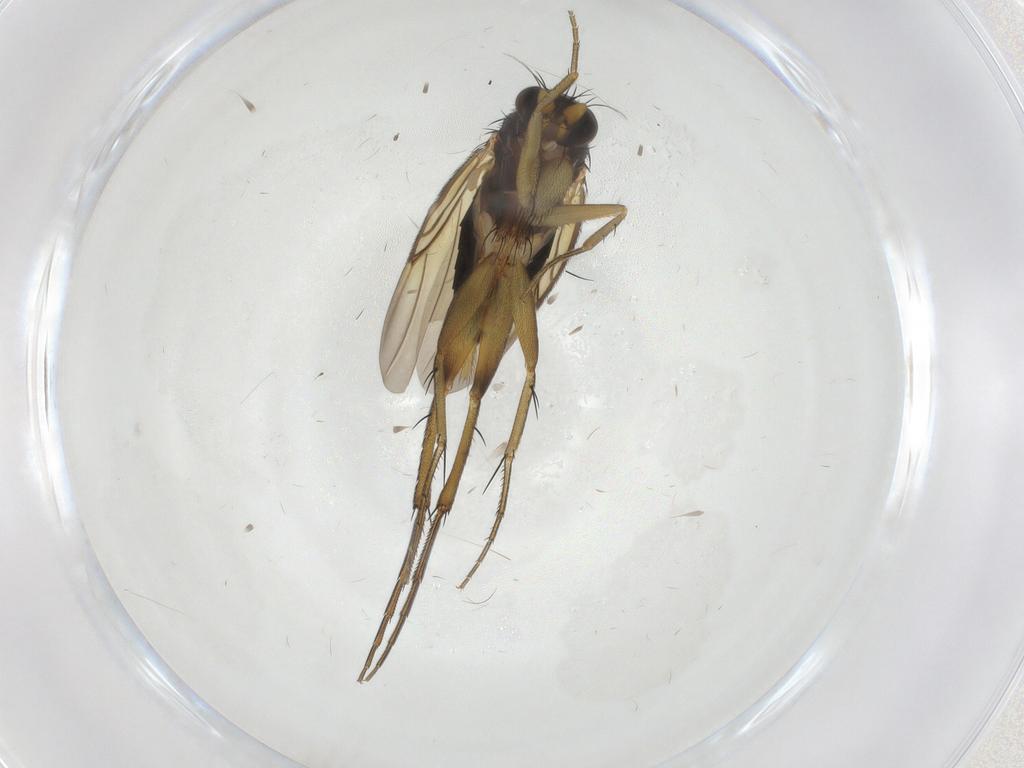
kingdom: Animalia
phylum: Arthropoda
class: Insecta
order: Diptera
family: Phoridae
